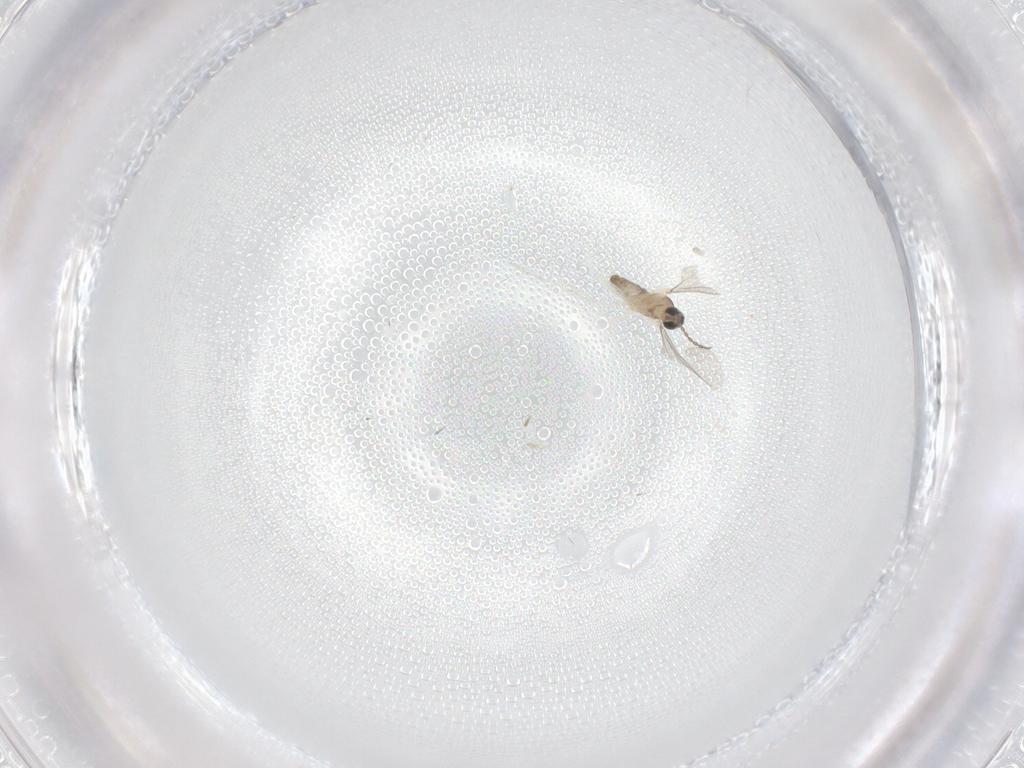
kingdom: Animalia
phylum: Arthropoda
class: Insecta
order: Diptera
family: Cecidomyiidae
